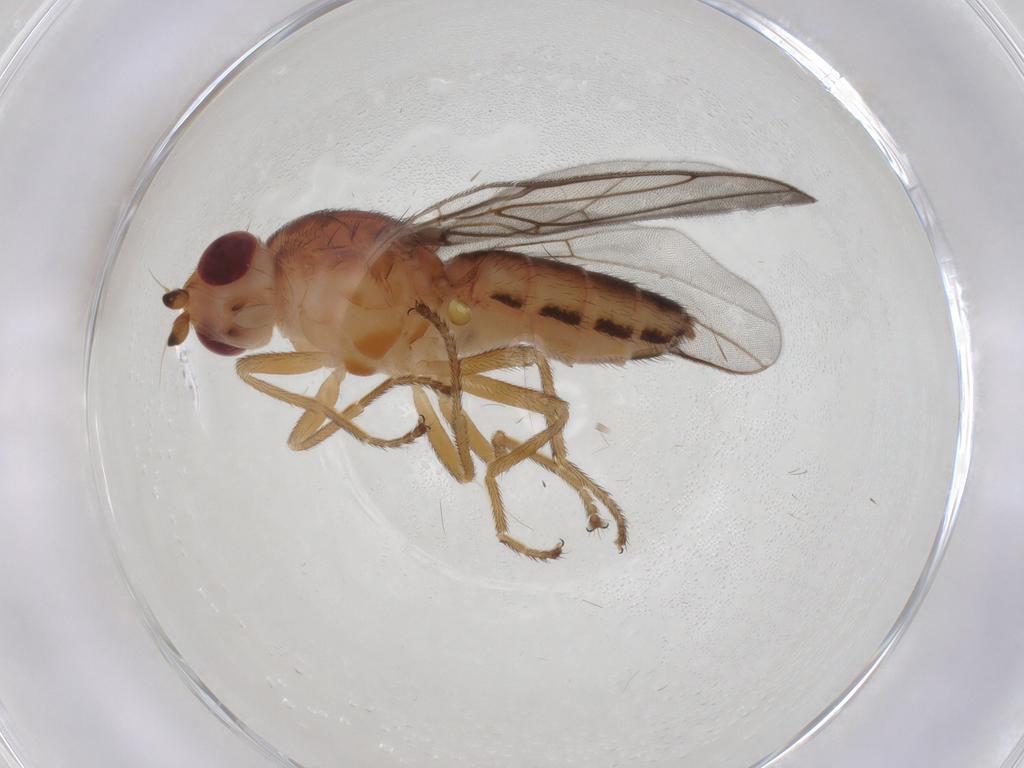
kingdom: Animalia
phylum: Arthropoda
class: Insecta
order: Diptera
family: Chloropidae
